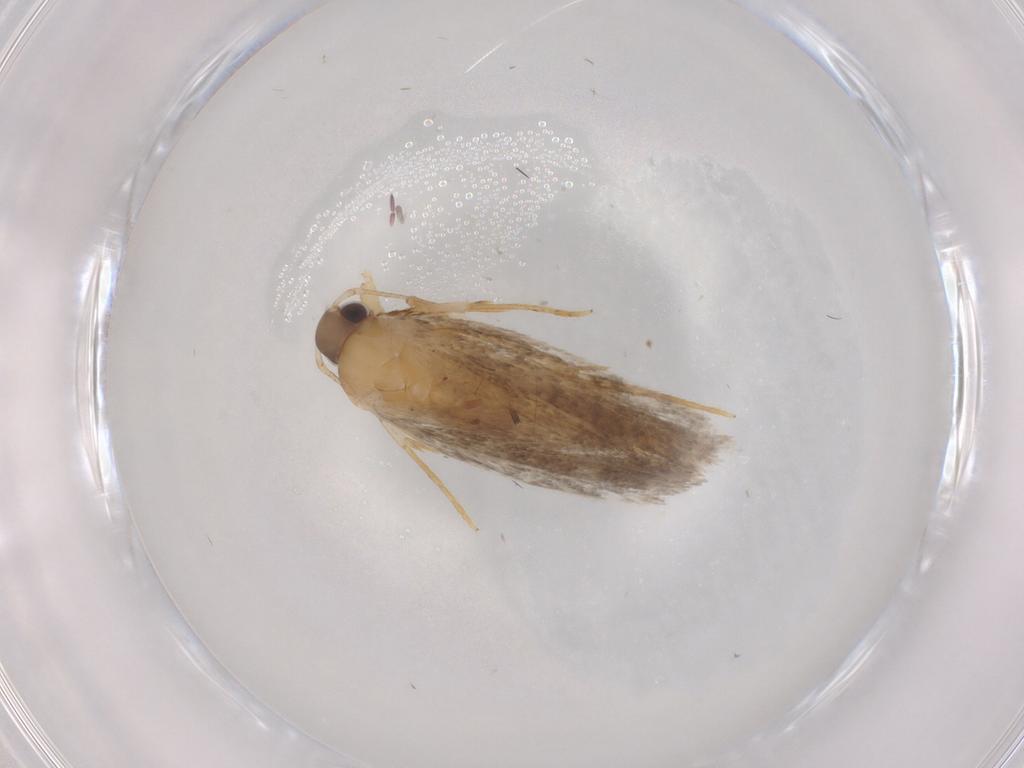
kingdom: Animalia
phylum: Arthropoda
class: Insecta
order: Lepidoptera
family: Autostichidae
